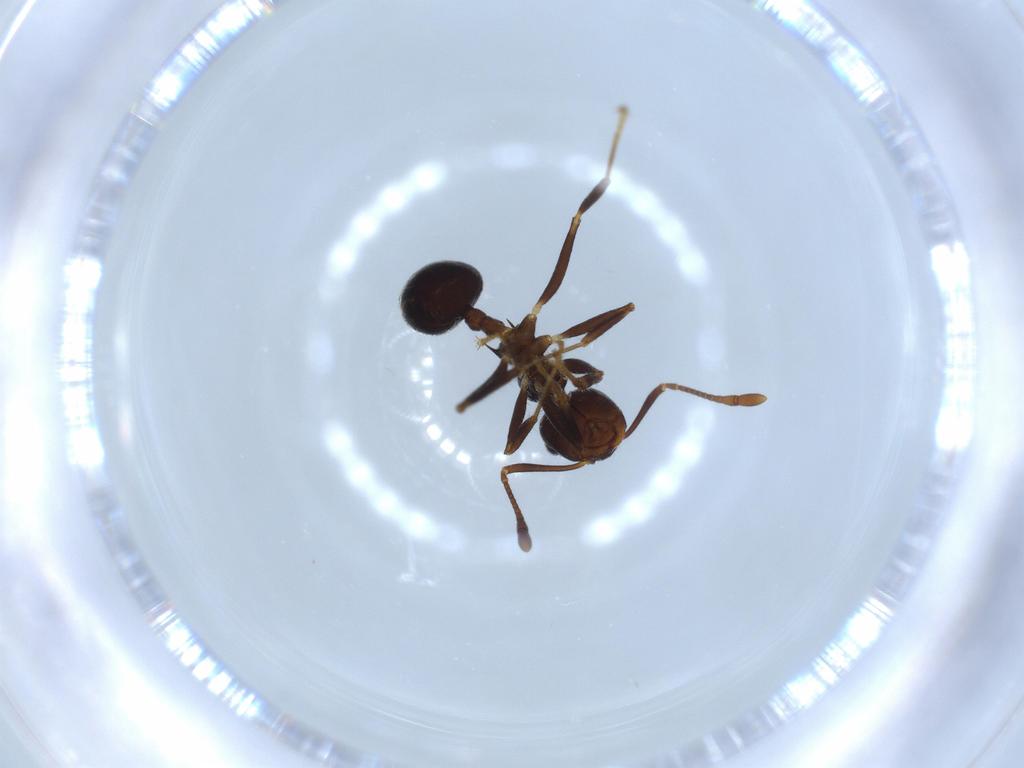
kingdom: Animalia
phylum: Arthropoda
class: Insecta
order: Hymenoptera
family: Formicidae
